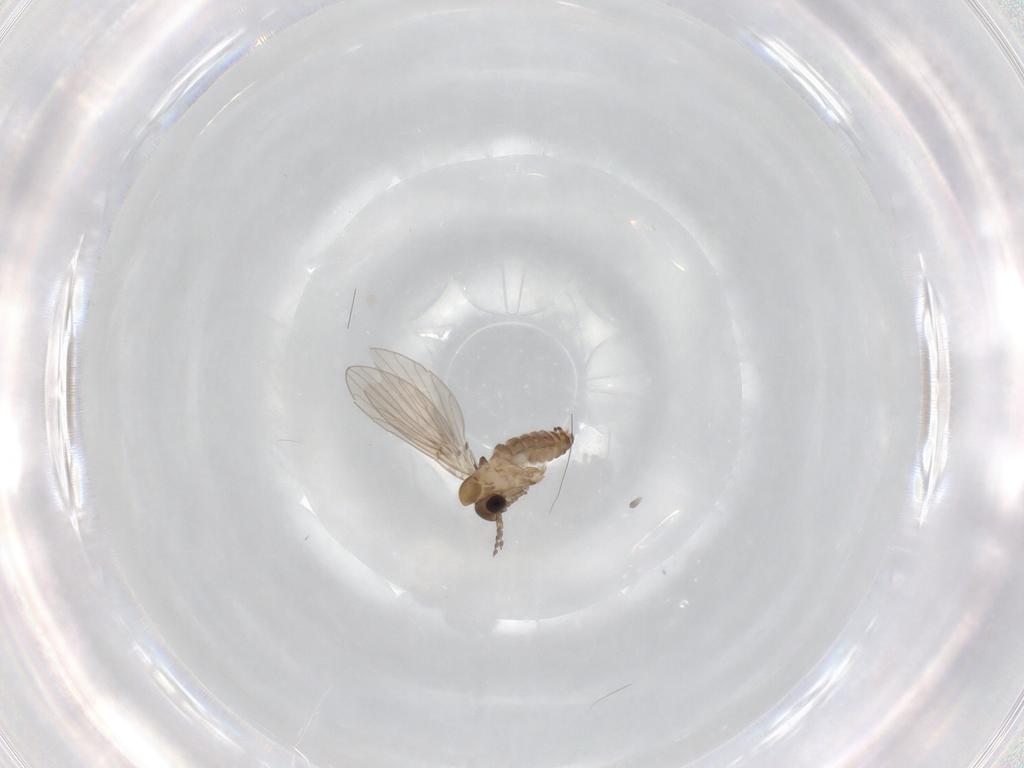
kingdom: Animalia
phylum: Arthropoda
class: Insecta
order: Diptera
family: Psychodidae
